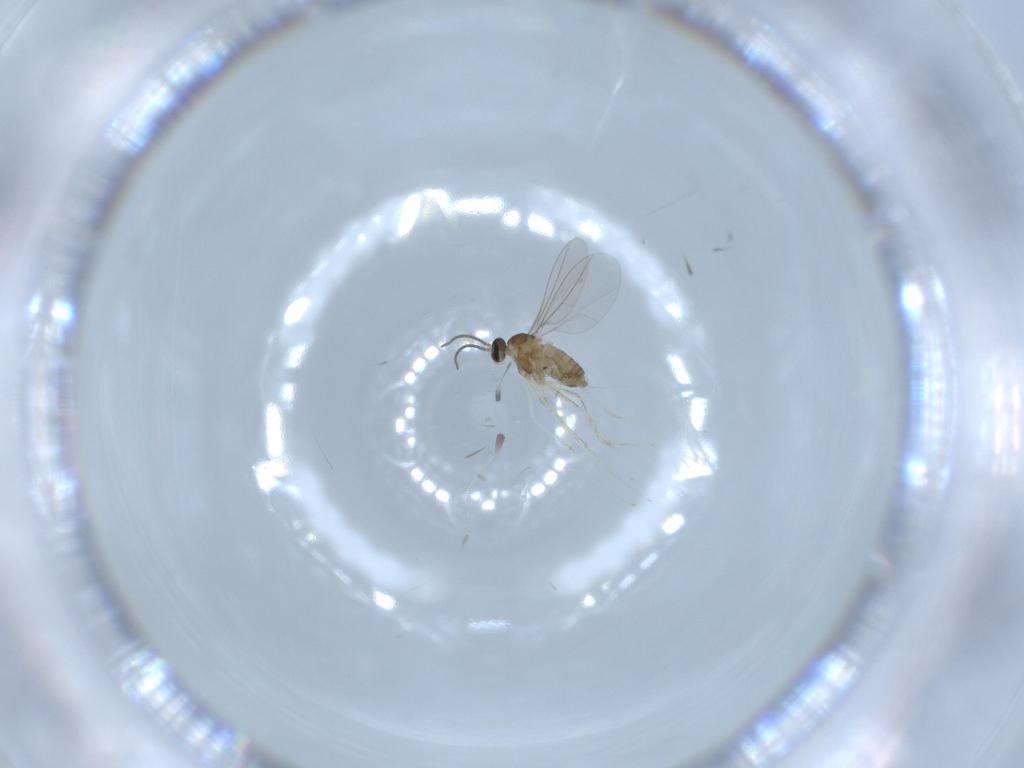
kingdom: Animalia
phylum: Arthropoda
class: Insecta
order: Diptera
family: Cecidomyiidae
